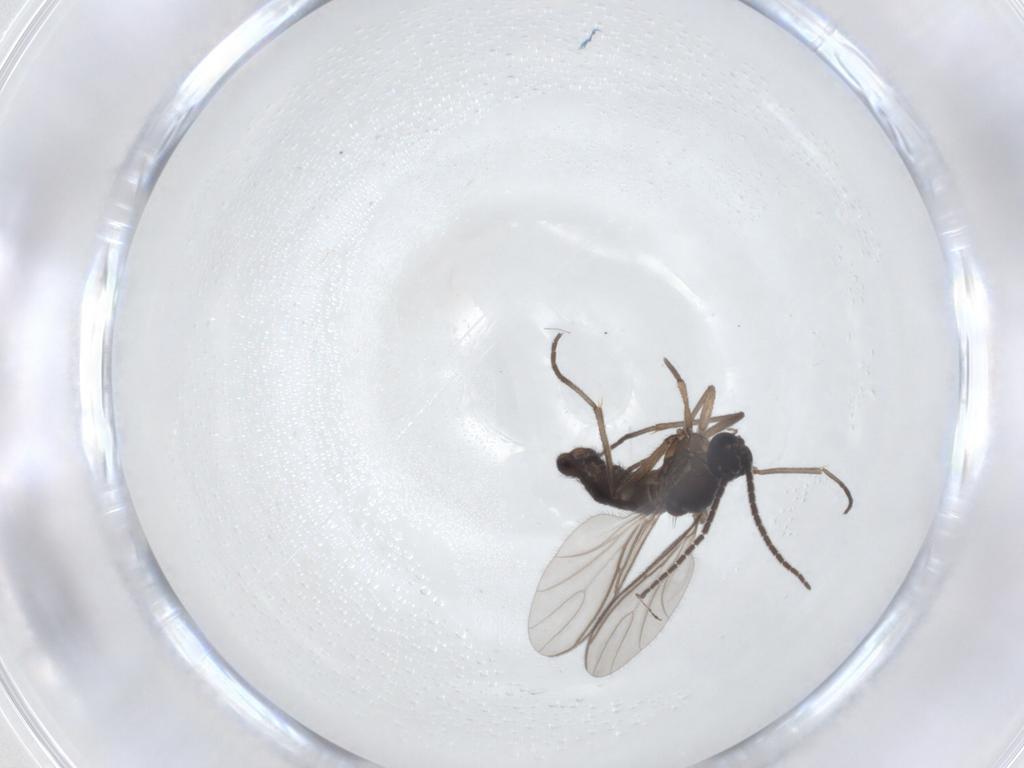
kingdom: Animalia
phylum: Arthropoda
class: Insecta
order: Diptera
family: Sciaridae
